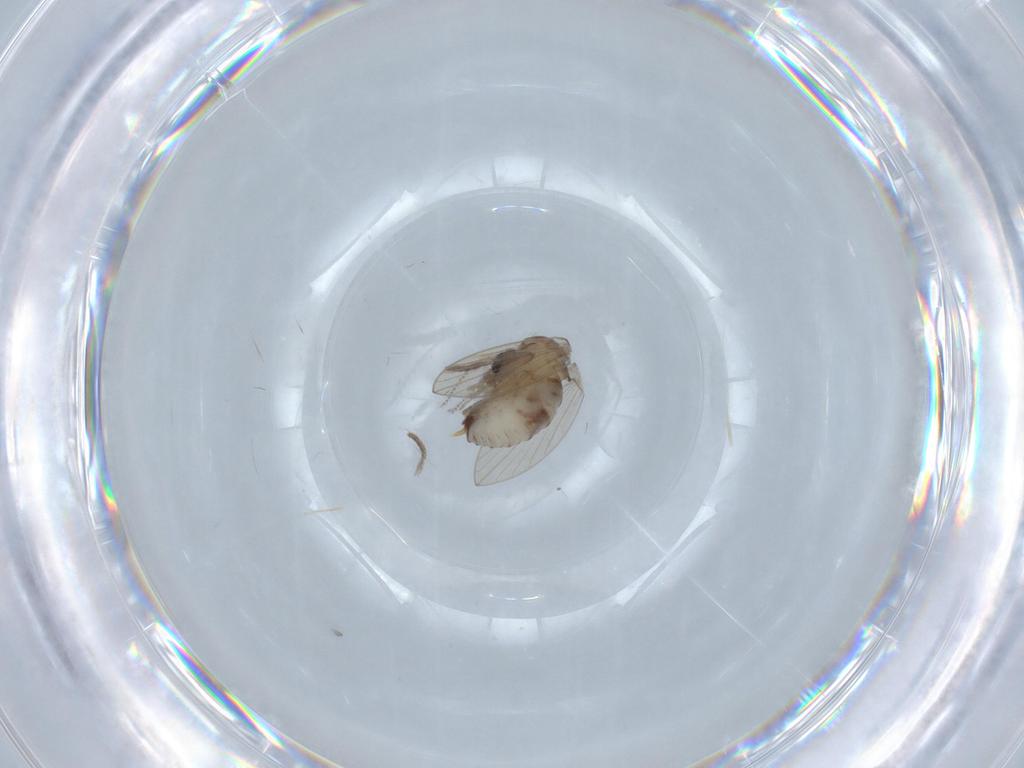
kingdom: Animalia
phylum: Arthropoda
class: Insecta
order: Diptera
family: Psychodidae
